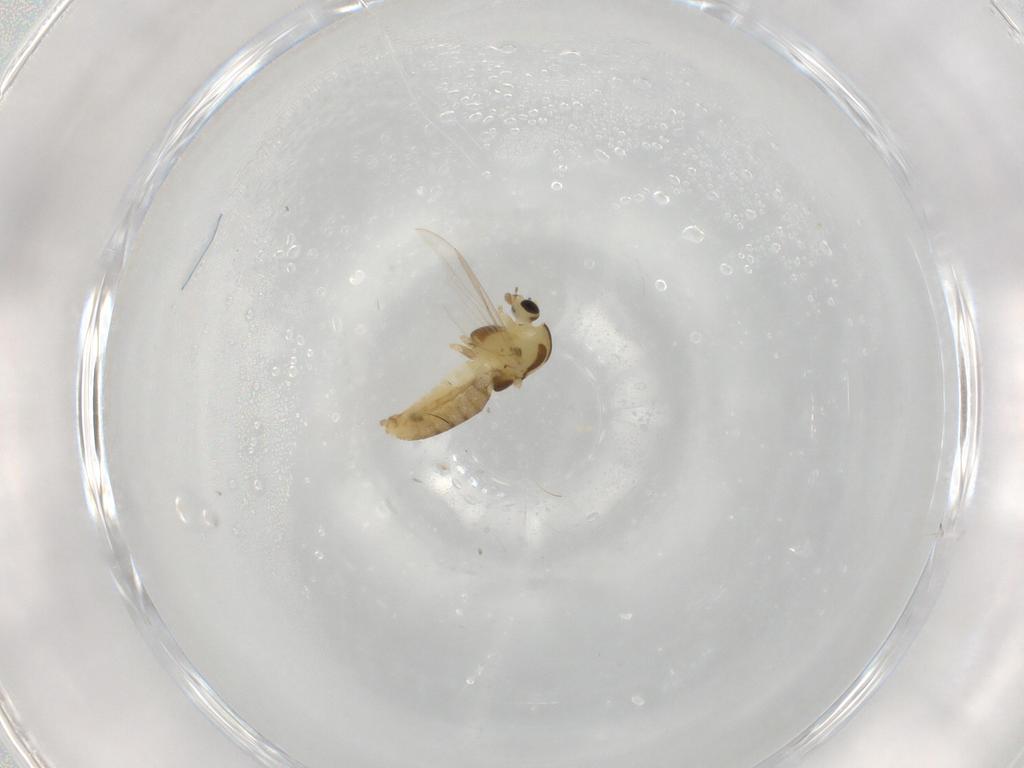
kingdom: Animalia
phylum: Arthropoda
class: Insecta
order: Diptera
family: Chironomidae
